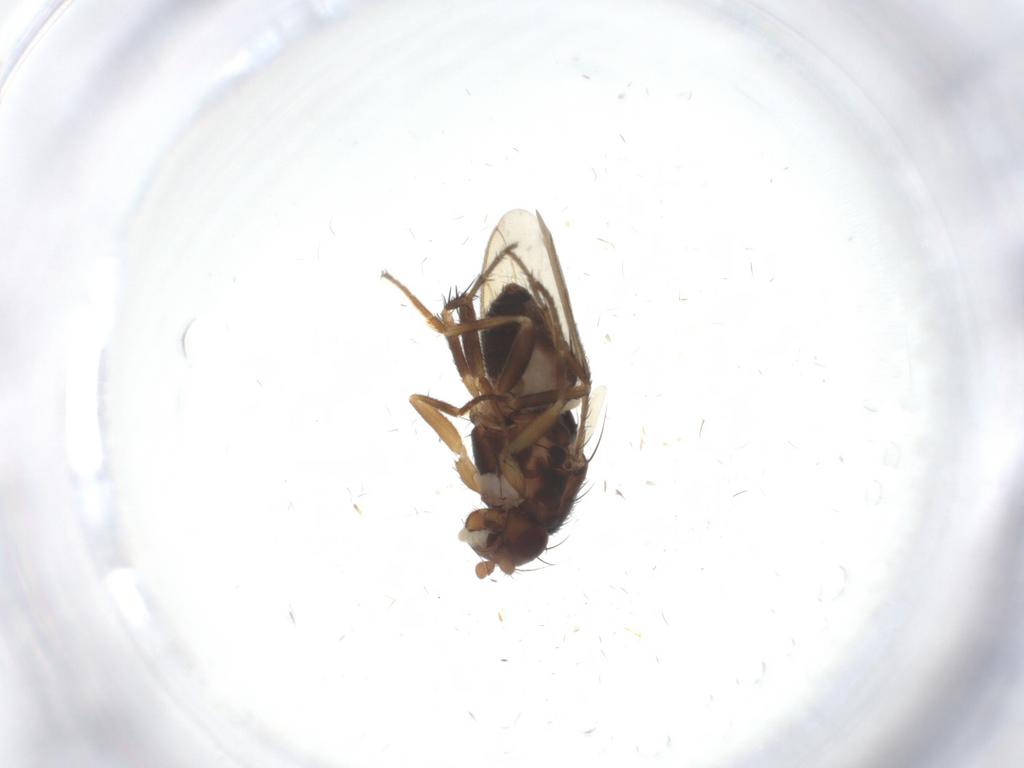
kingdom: Animalia
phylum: Arthropoda
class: Insecta
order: Diptera
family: Sphaeroceridae
